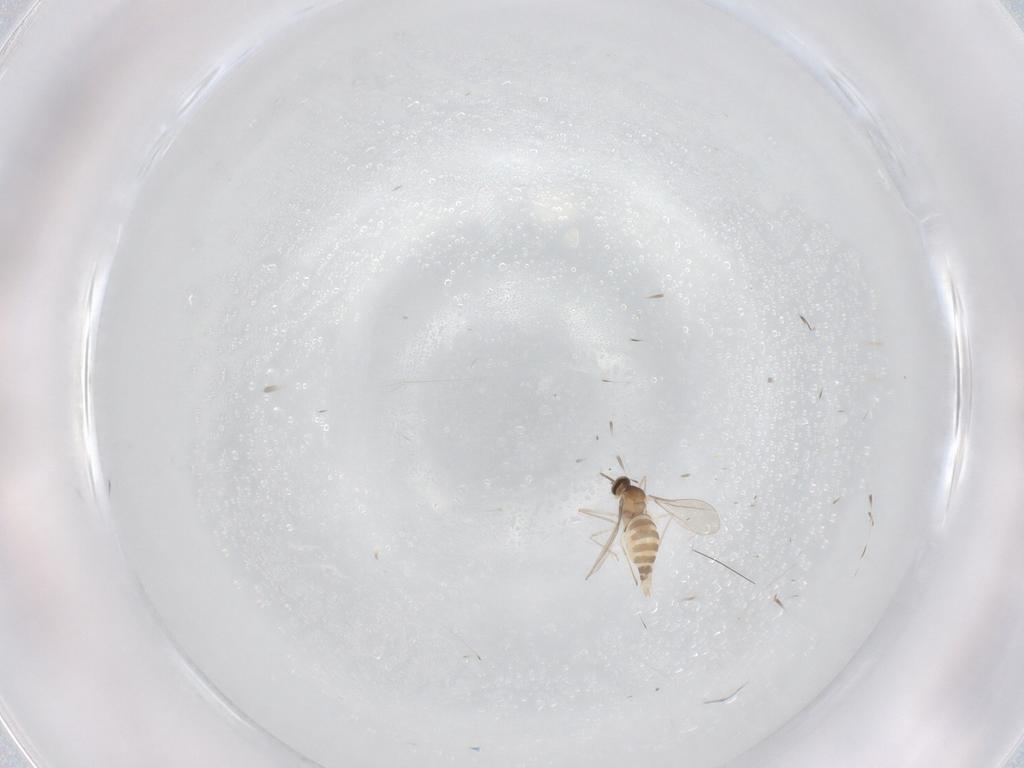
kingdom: Animalia
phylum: Arthropoda
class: Insecta
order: Diptera
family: Cecidomyiidae
